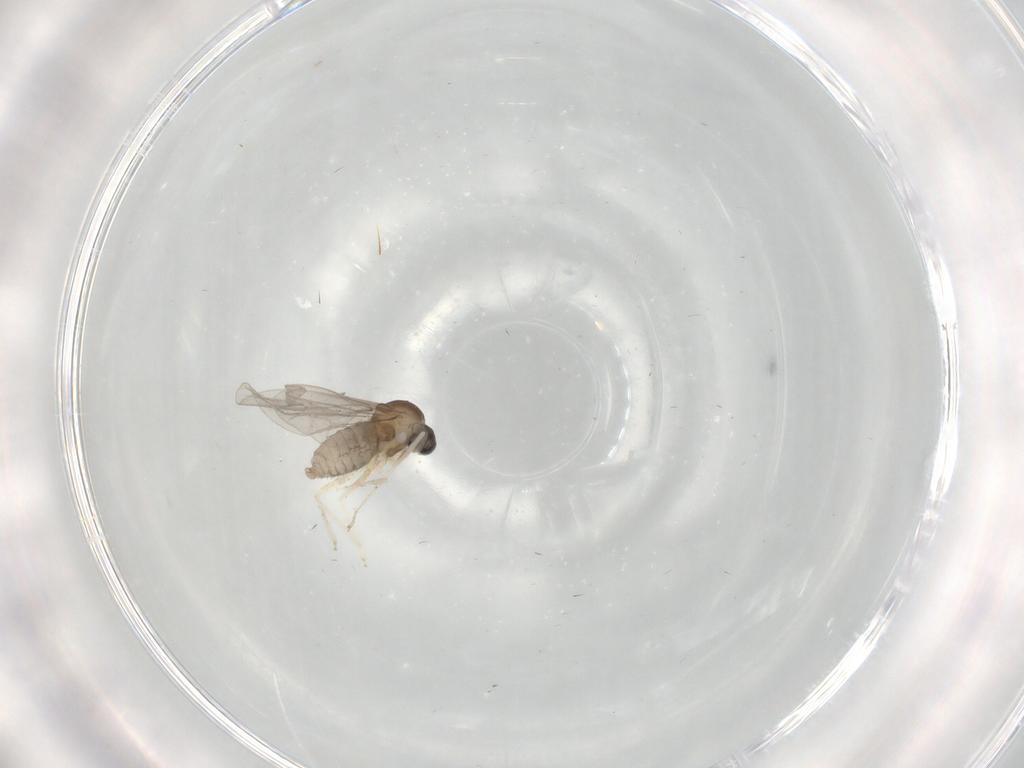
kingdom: Animalia
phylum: Arthropoda
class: Insecta
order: Diptera
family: Cecidomyiidae
